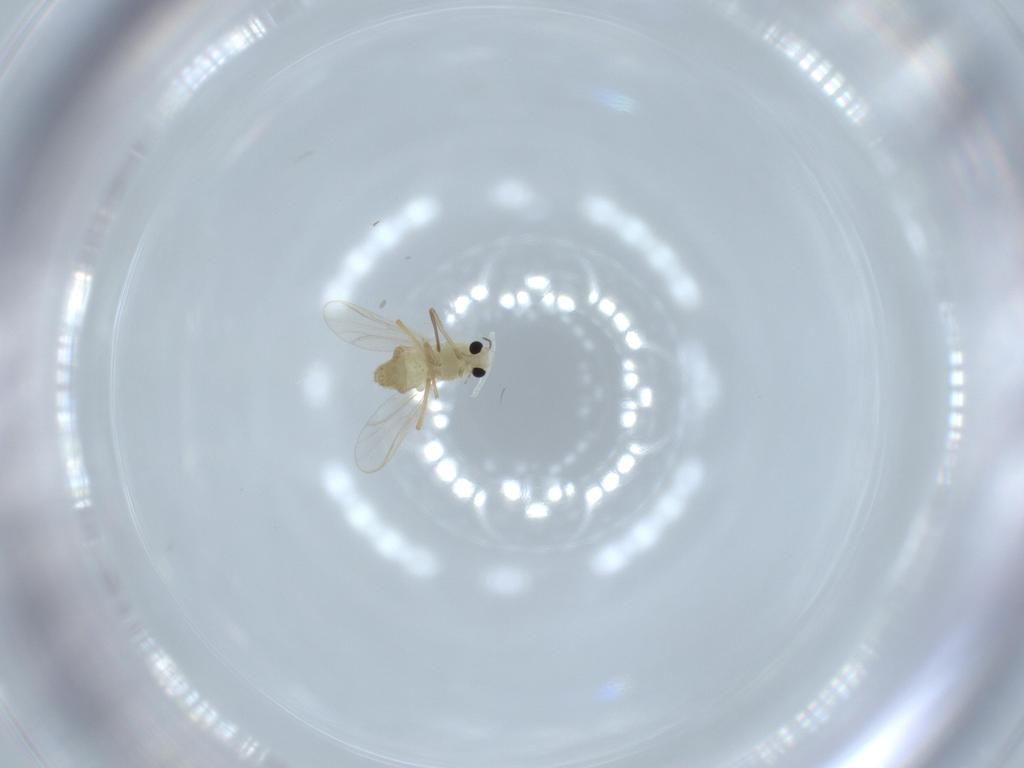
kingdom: Animalia
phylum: Arthropoda
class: Insecta
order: Diptera
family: Chironomidae
